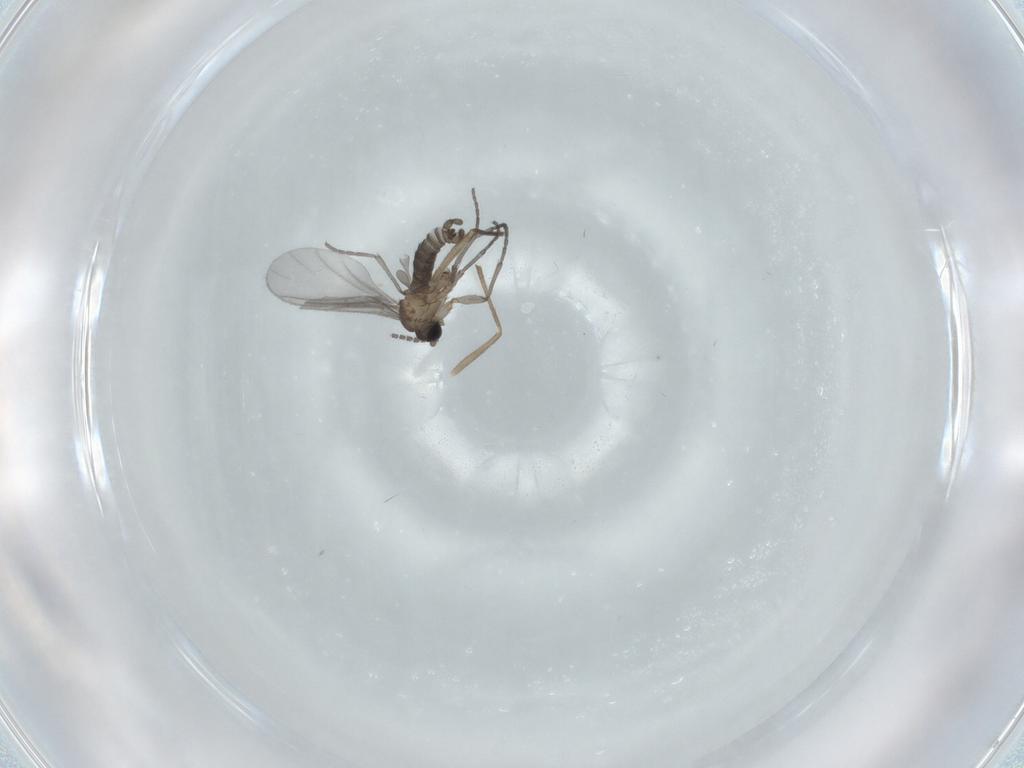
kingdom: Animalia
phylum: Arthropoda
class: Insecta
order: Diptera
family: Sciaridae
